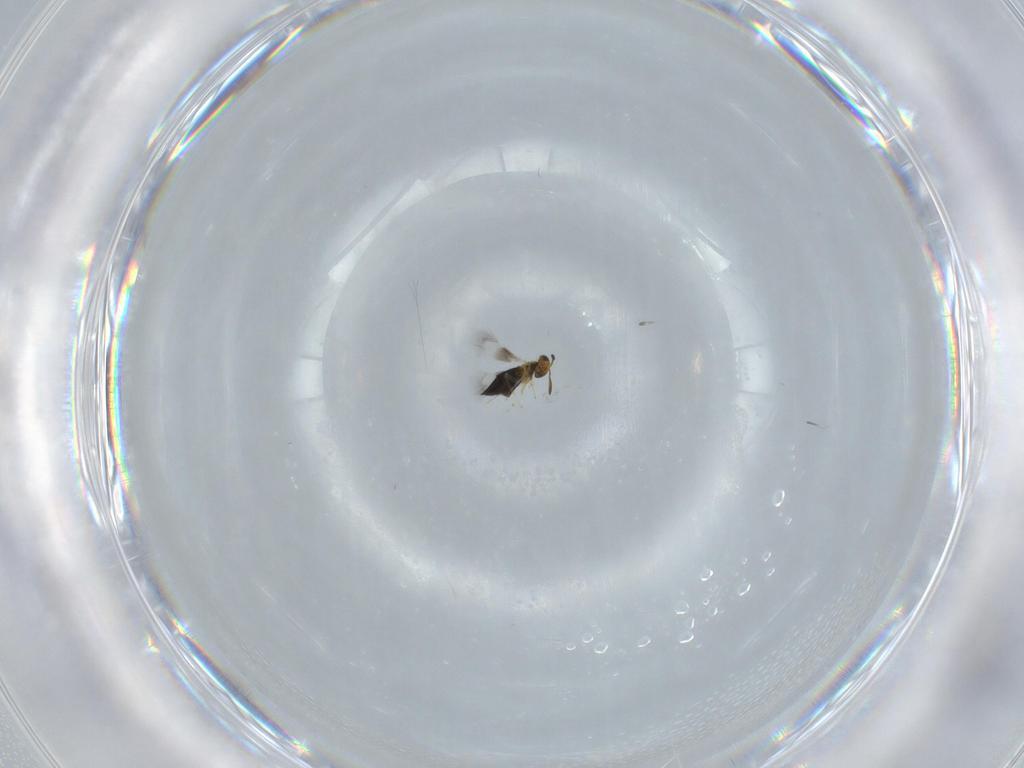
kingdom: Animalia
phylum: Arthropoda
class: Insecta
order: Hymenoptera
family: Signiphoridae
